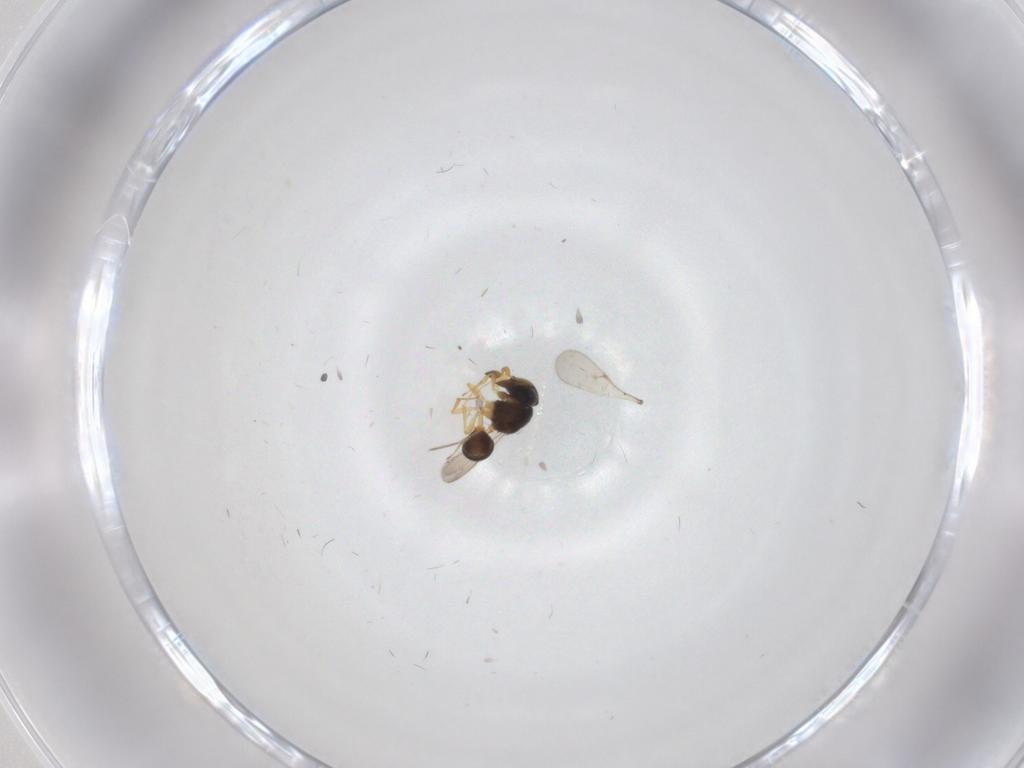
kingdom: Animalia
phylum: Arthropoda
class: Insecta
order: Hymenoptera
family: Scelionidae
